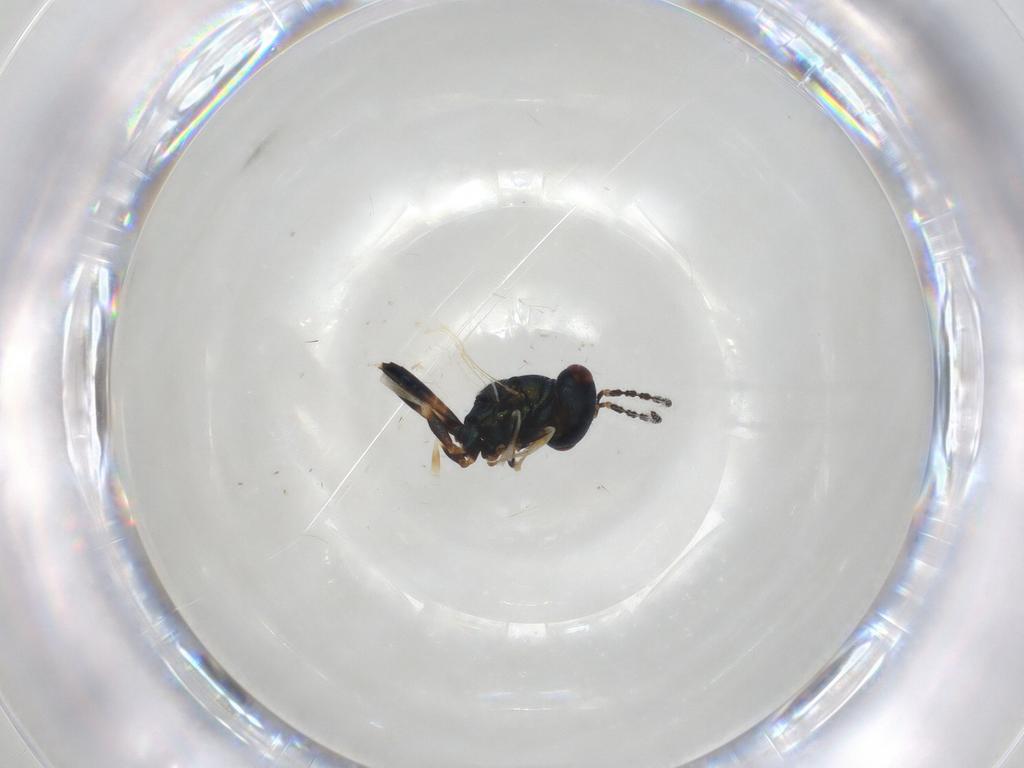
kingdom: Animalia
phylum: Arthropoda
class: Insecta
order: Hymenoptera
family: Pteromalidae
